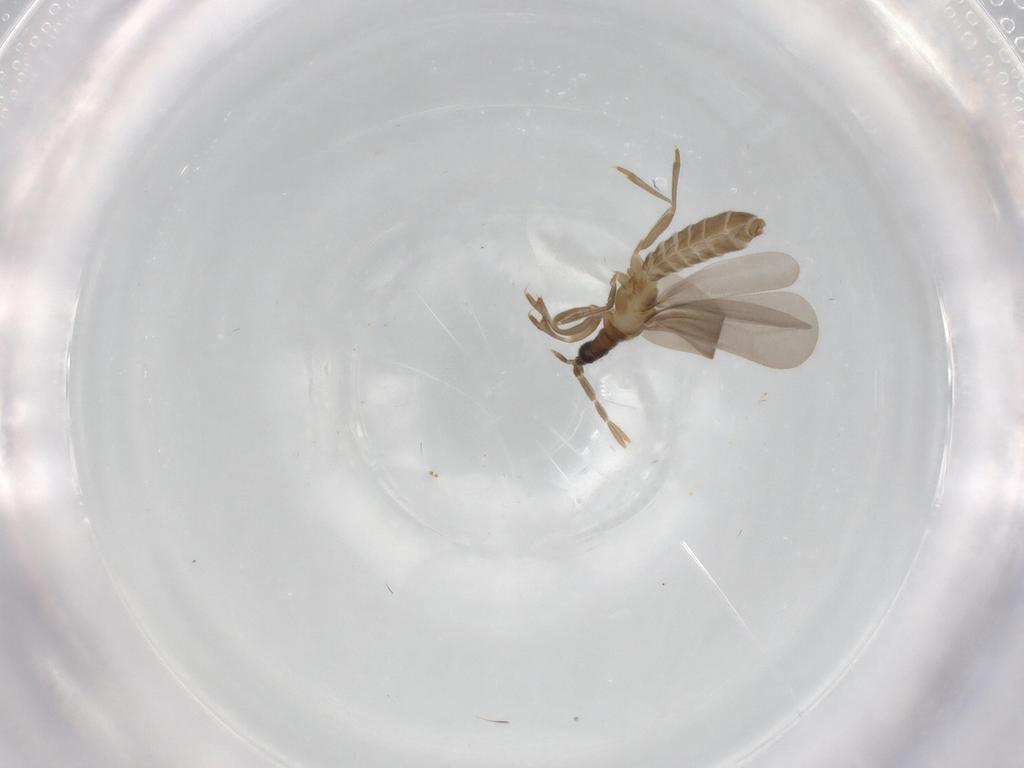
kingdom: Animalia
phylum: Arthropoda
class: Insecta
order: Hemiptera
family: Enicocephalidae
